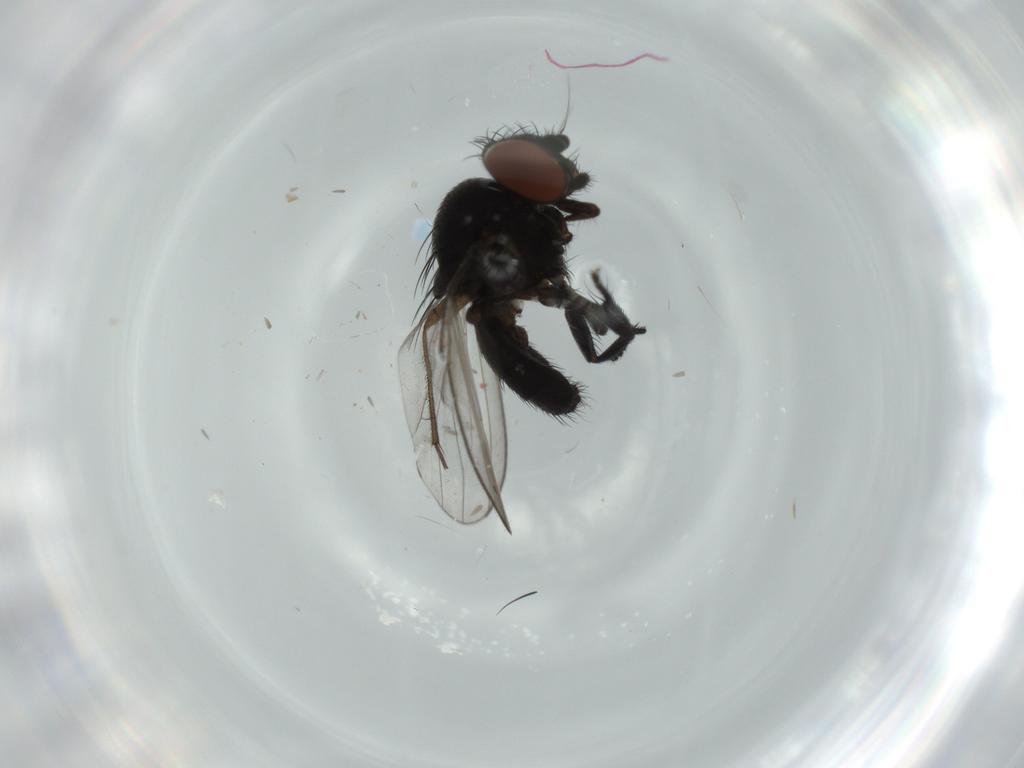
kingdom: Animalia
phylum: Arthropoda
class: Insecta
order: Diptera
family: Milichiidae
